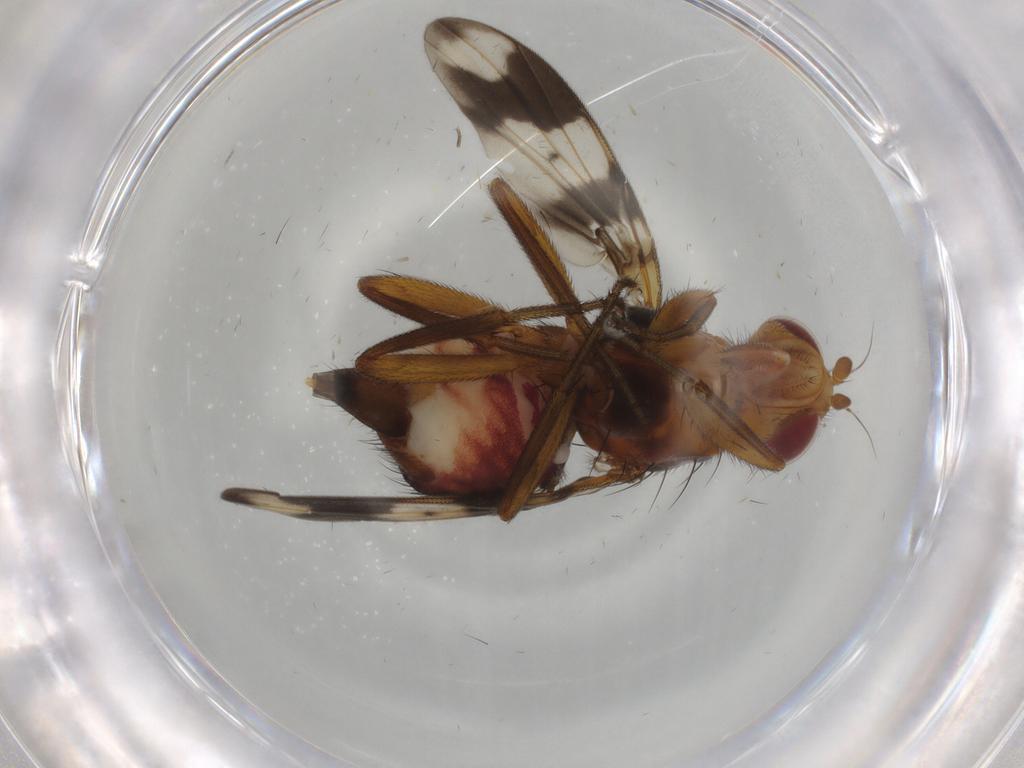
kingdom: Animalia
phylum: Arthropoda
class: Insecta
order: Diptera
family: Richardiidae
